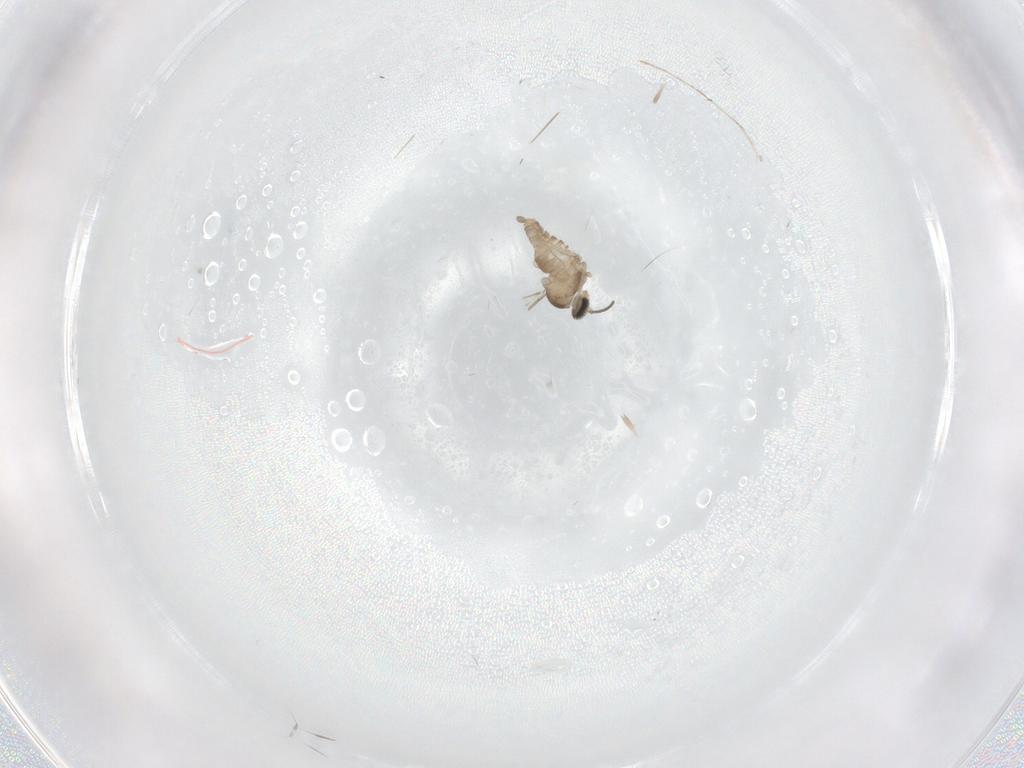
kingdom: Animalia
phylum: Arthropoda
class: Insecta
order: Diptera
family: Cecidomyiidae
